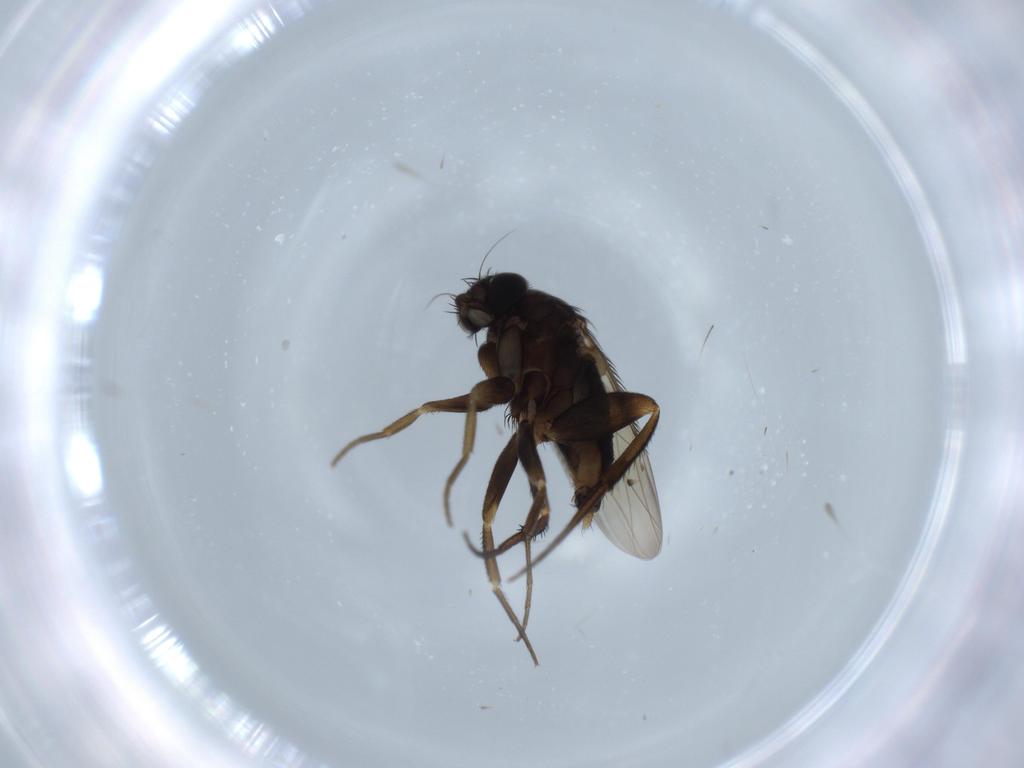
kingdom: Animalia
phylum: Arthropoda
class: Insecta
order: Diptera
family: Phoridae
